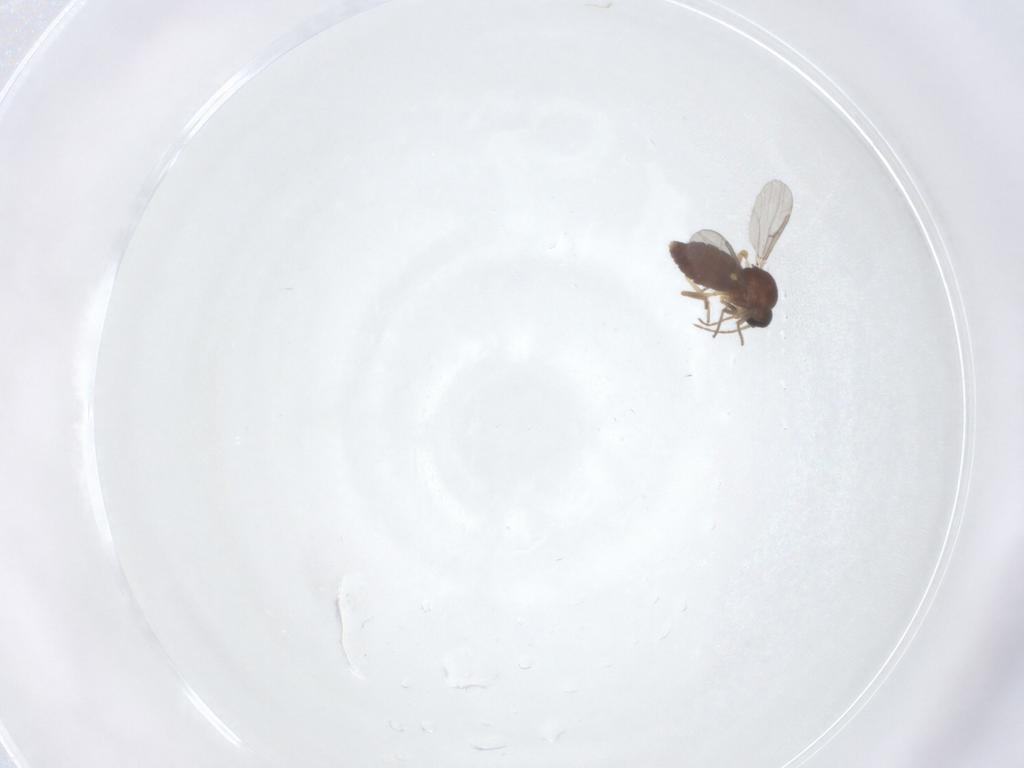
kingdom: Animalia
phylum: Arthropoda
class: Insecta
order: Diptera
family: Ceratopogonidae
